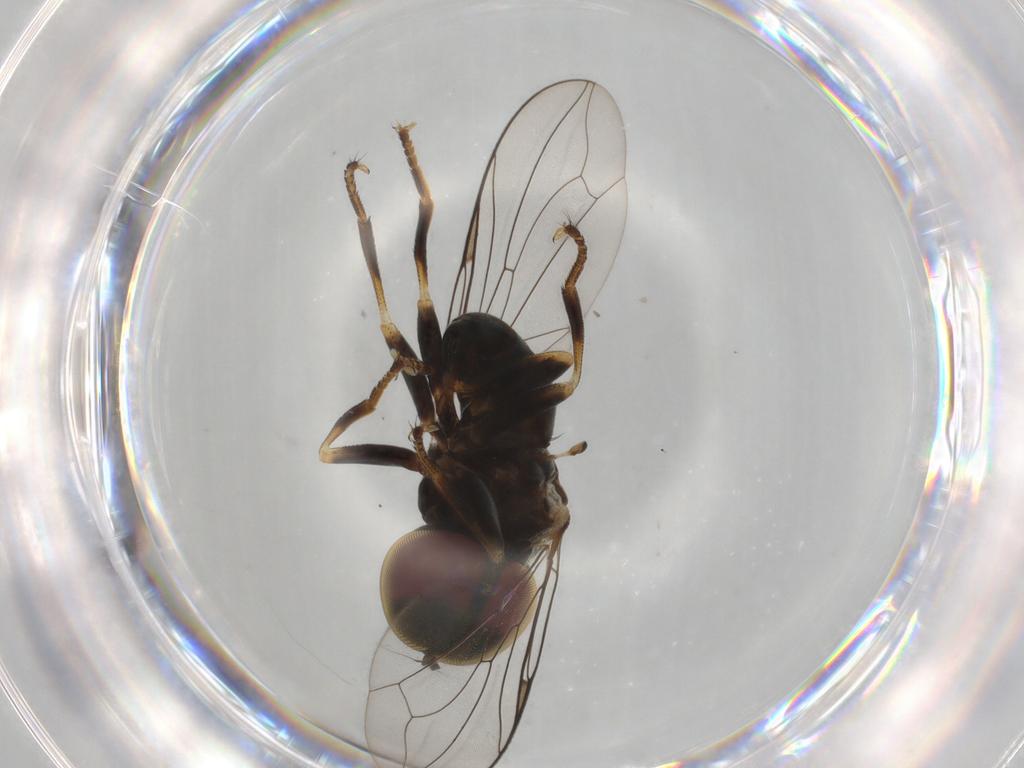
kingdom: Animalia
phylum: Arthropoda
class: Insecta
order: Diptera
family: Pipunculidae
